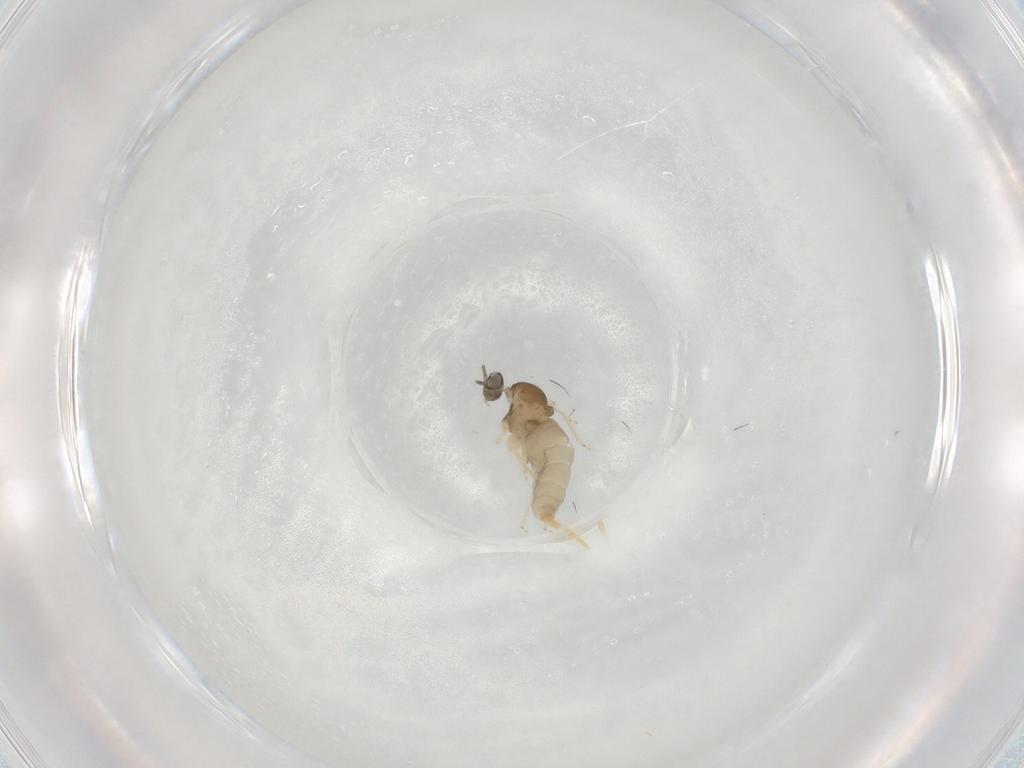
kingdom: Animalia
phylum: Arthropoda
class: Insecta
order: Diptera
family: Cecidomyiidae
